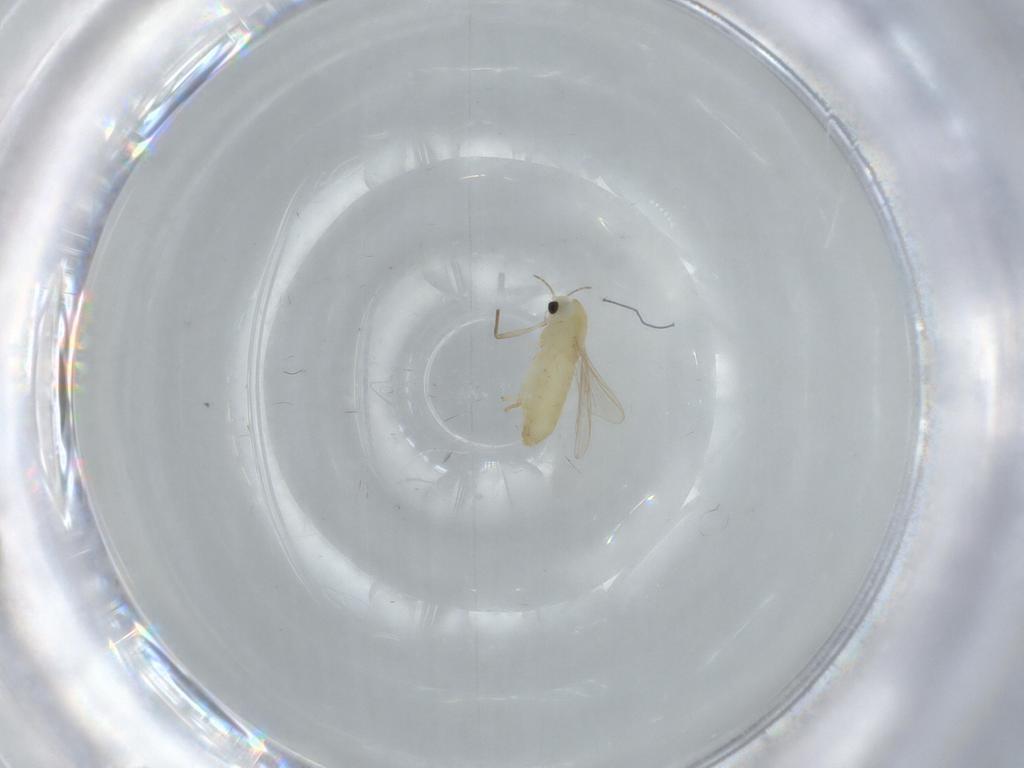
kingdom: Animalia
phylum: Arthropoda
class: Insecta
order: Diptera
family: Chironomidae
